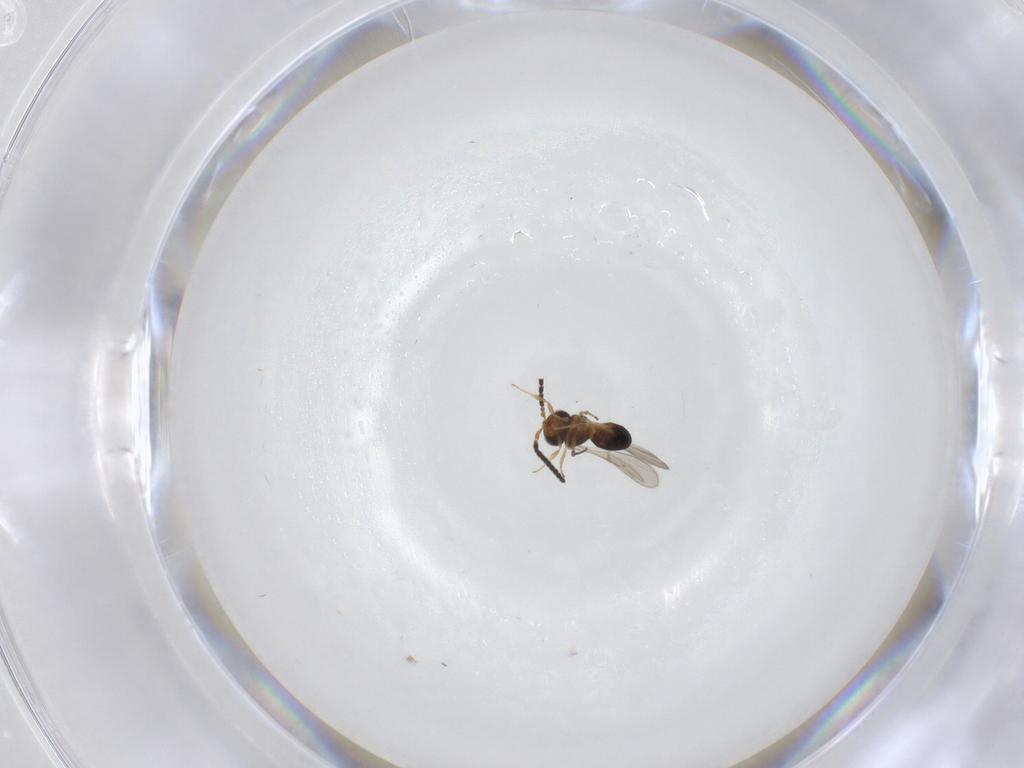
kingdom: Animalia
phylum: Arthropoda
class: Insecta
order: Hymenoptera
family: Scelionidae
